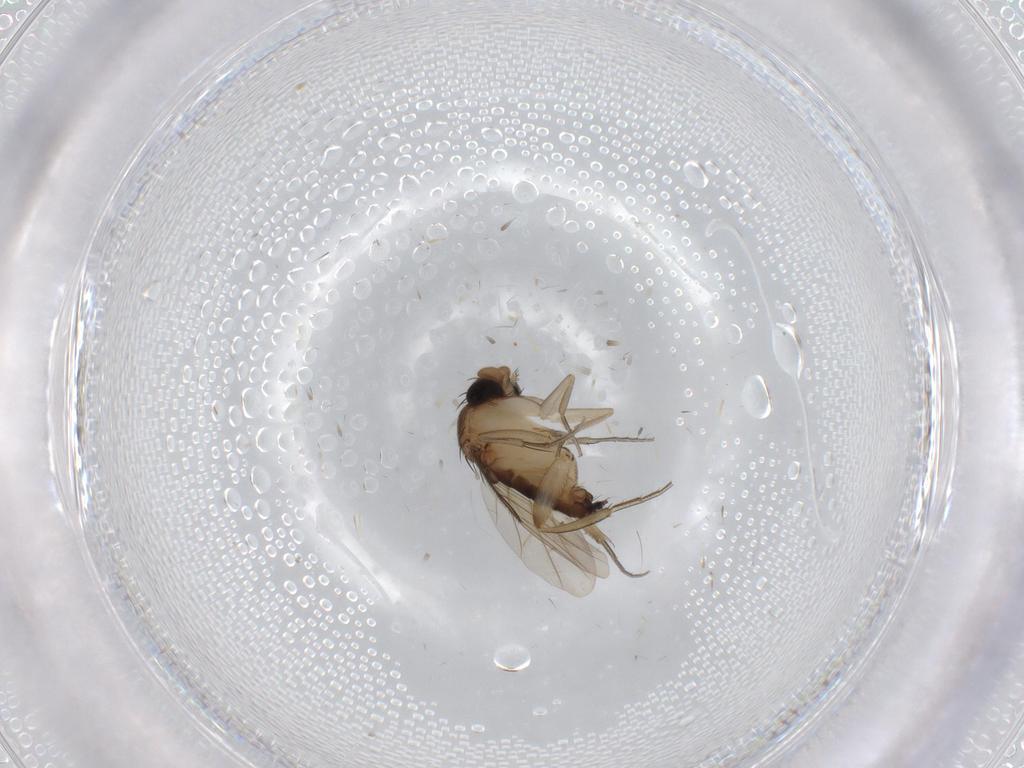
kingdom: Animalia
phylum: Arthropoda
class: Insecta
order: Diptera
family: Phoridae
